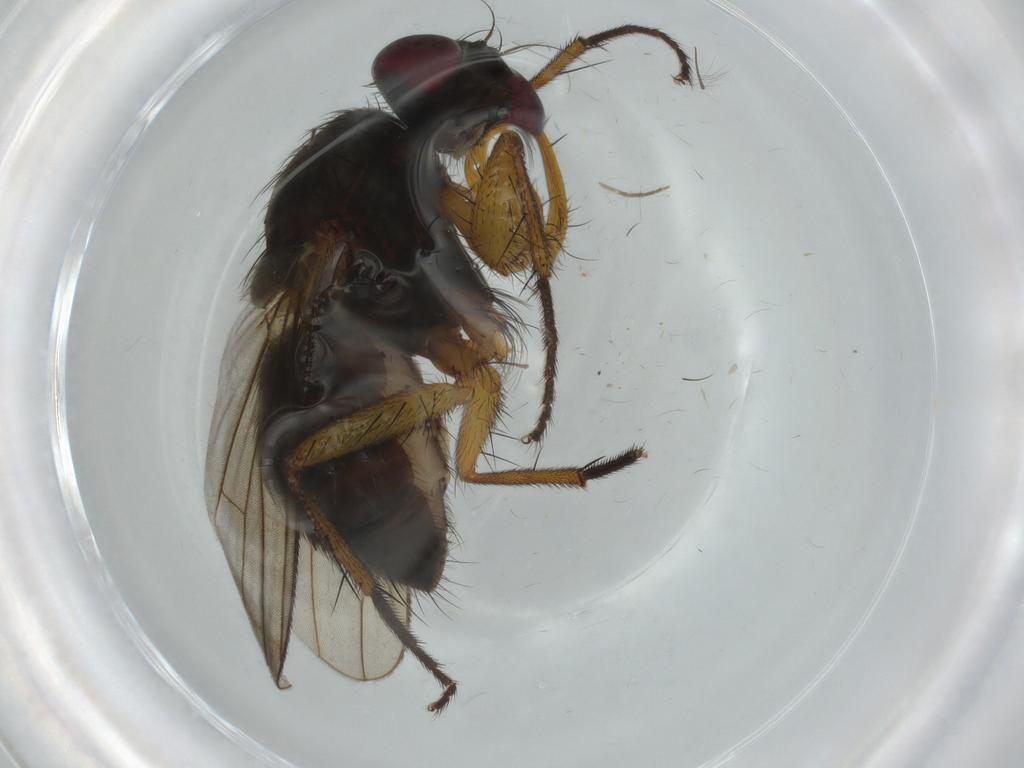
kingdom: Animalia
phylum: Arthropoda
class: Insecta
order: Diptera
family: Muscidae
